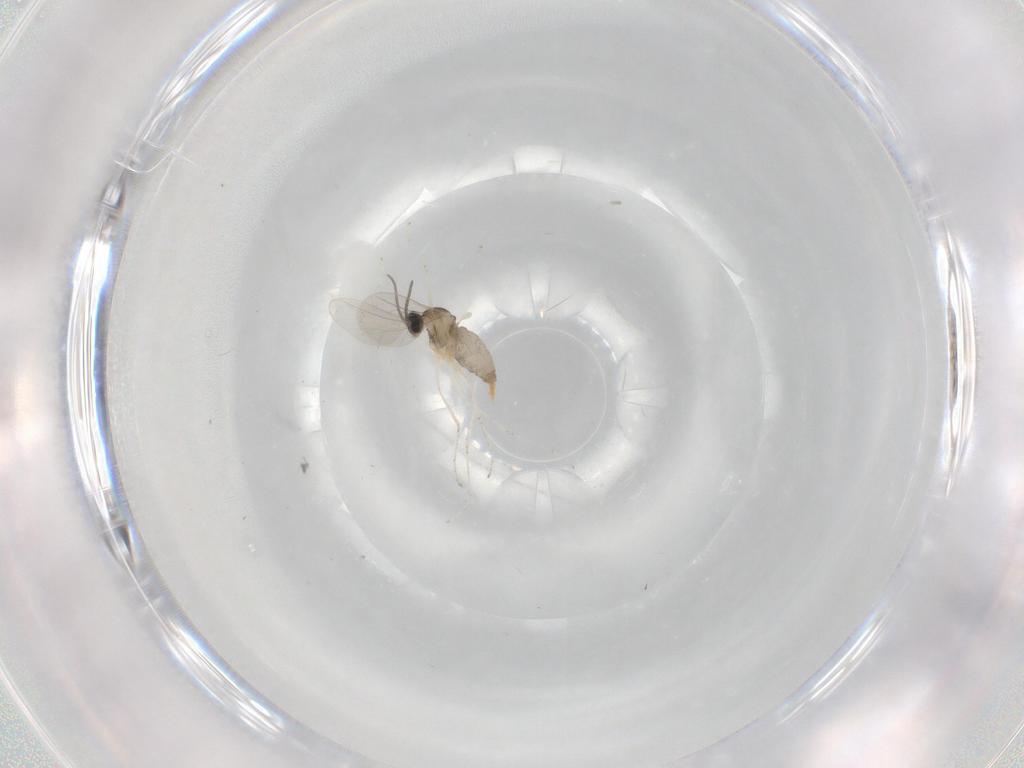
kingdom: Animalia
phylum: Arthropoda
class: Insecta
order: Diptera
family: Cecidomyiidae
